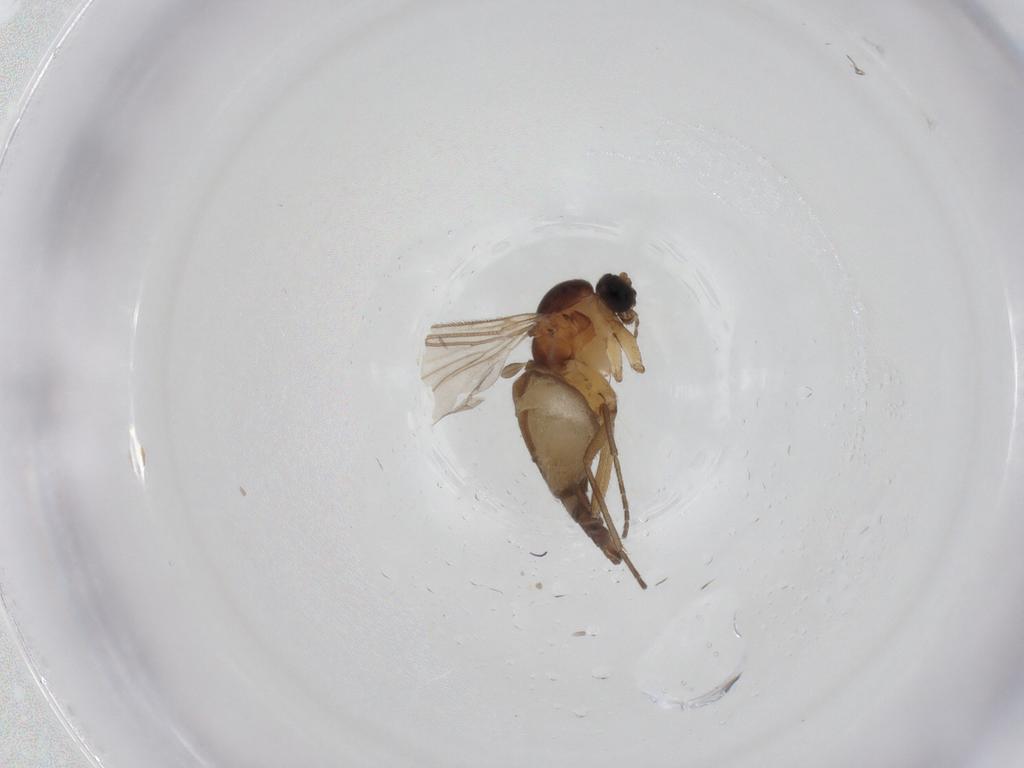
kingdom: Animalia
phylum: Arthropoda
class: Insecta
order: Diptera
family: Sciaridae
